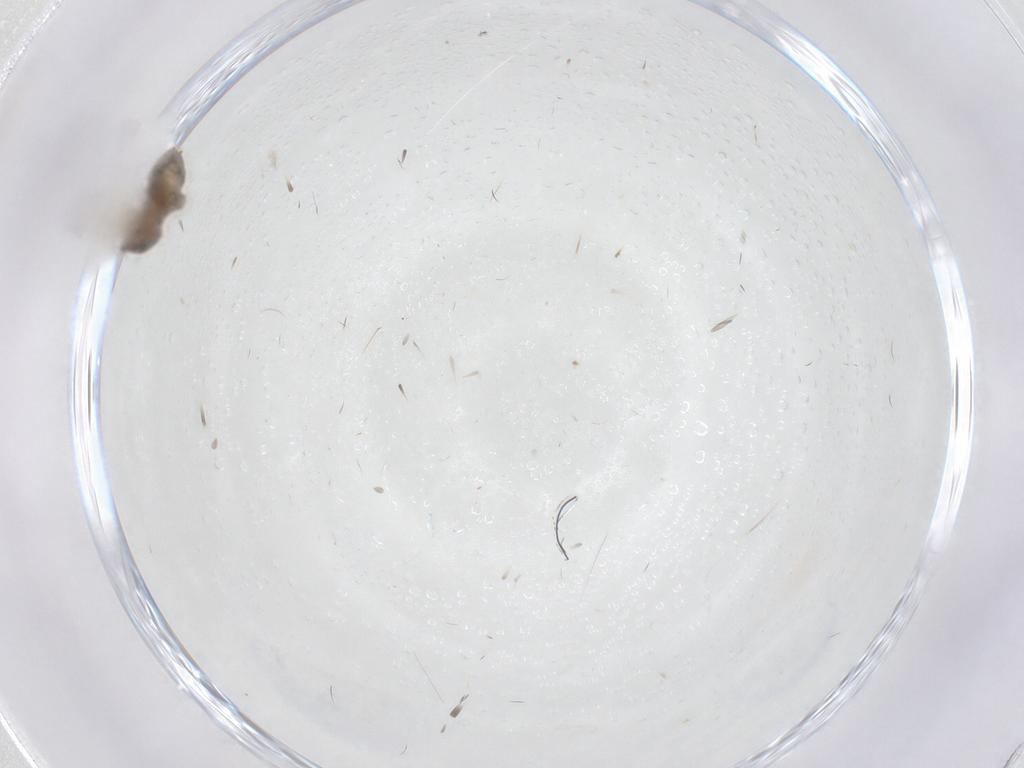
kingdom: Animalia
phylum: Arthropoda
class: Insecta
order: Diptera
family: Psychodidae
